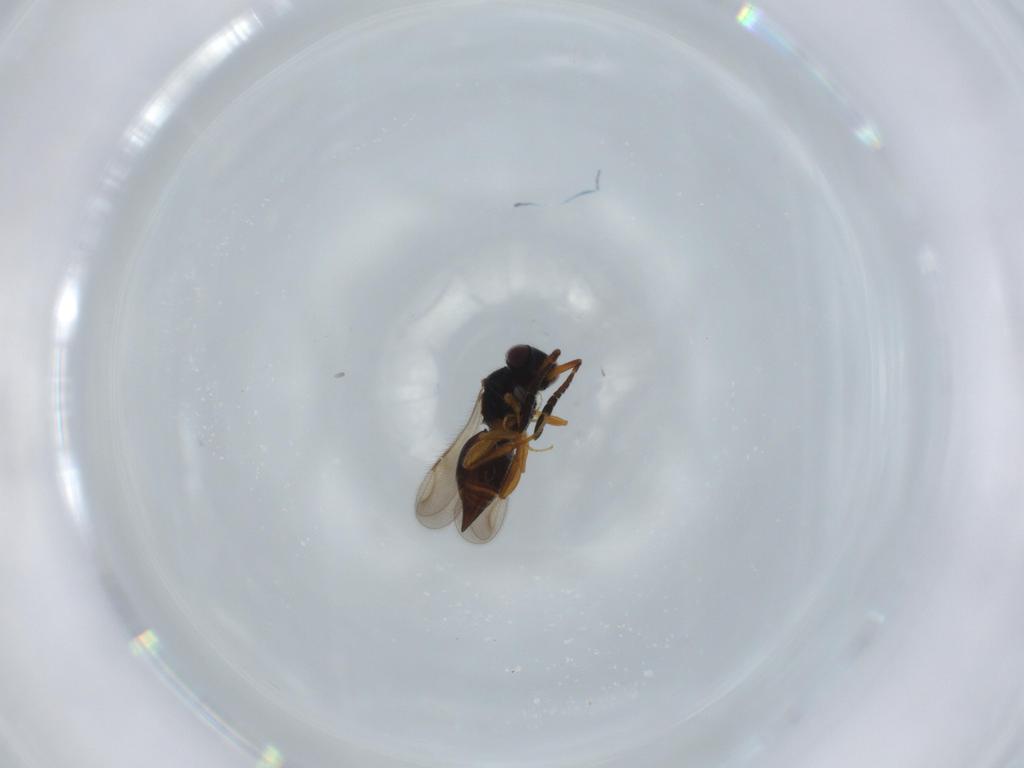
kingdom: Animalia
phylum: Arthropoda
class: Insecta
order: Hymenoptera
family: Ceraphronidae
